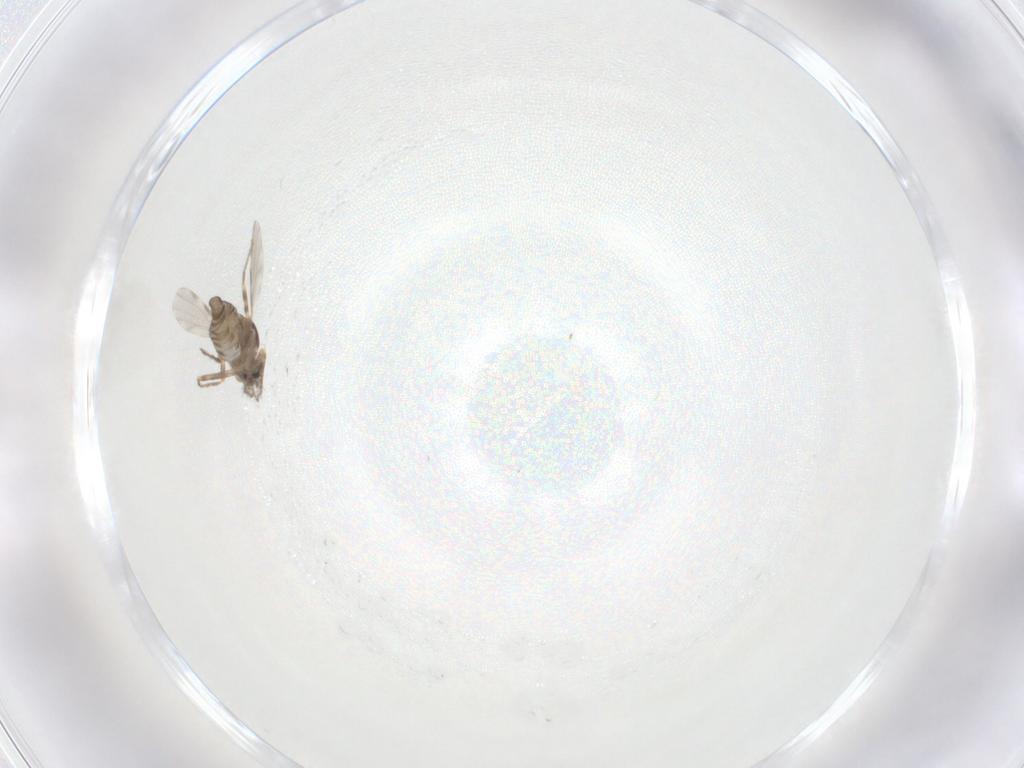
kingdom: Animalia
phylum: Arthropoda
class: Insecta
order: Diptera
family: Ceratopogonidae
